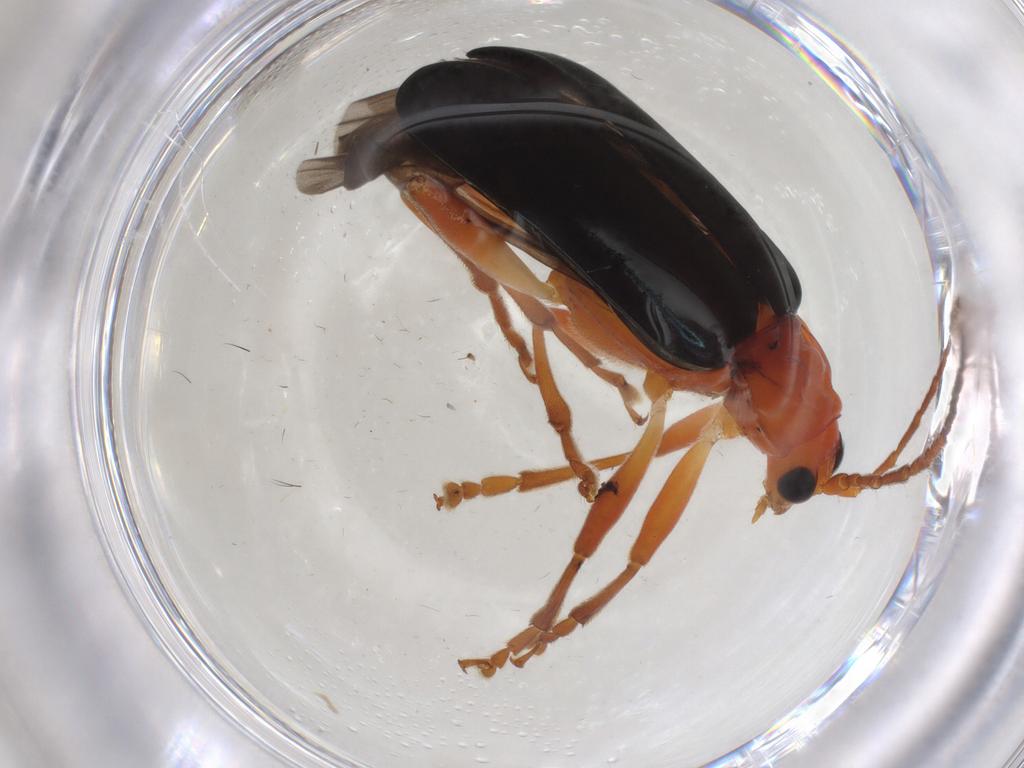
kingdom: Animalia
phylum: Arthropoda
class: Insecta
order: Coleoptera
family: Chrysomelidae
